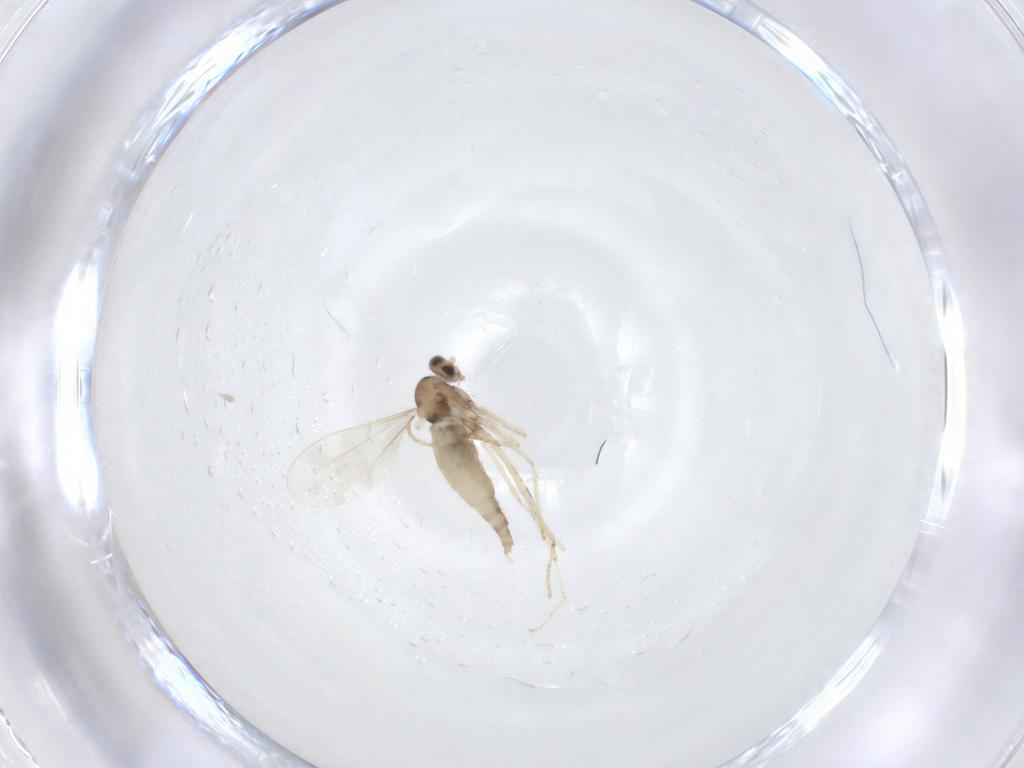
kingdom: Animalia
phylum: Arthropoda
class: Insecta
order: Diptera
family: Cecidomyiidae
